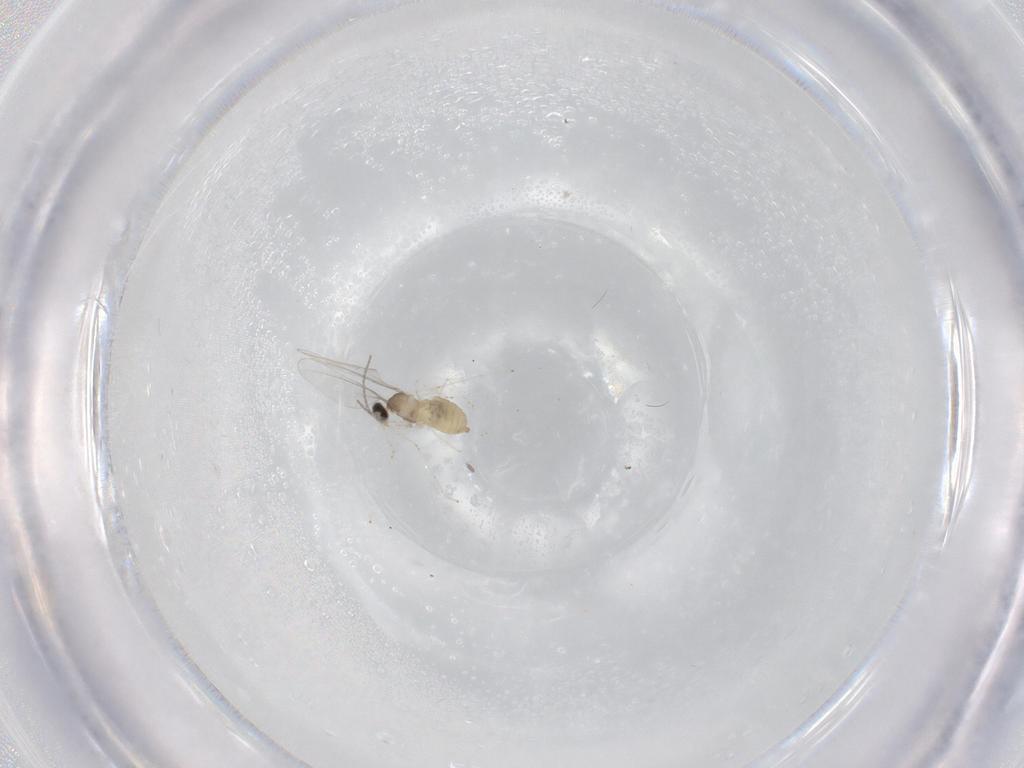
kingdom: Animalia
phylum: Arthropoda
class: Insecta
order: Diptera
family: Cecidomyiidae
